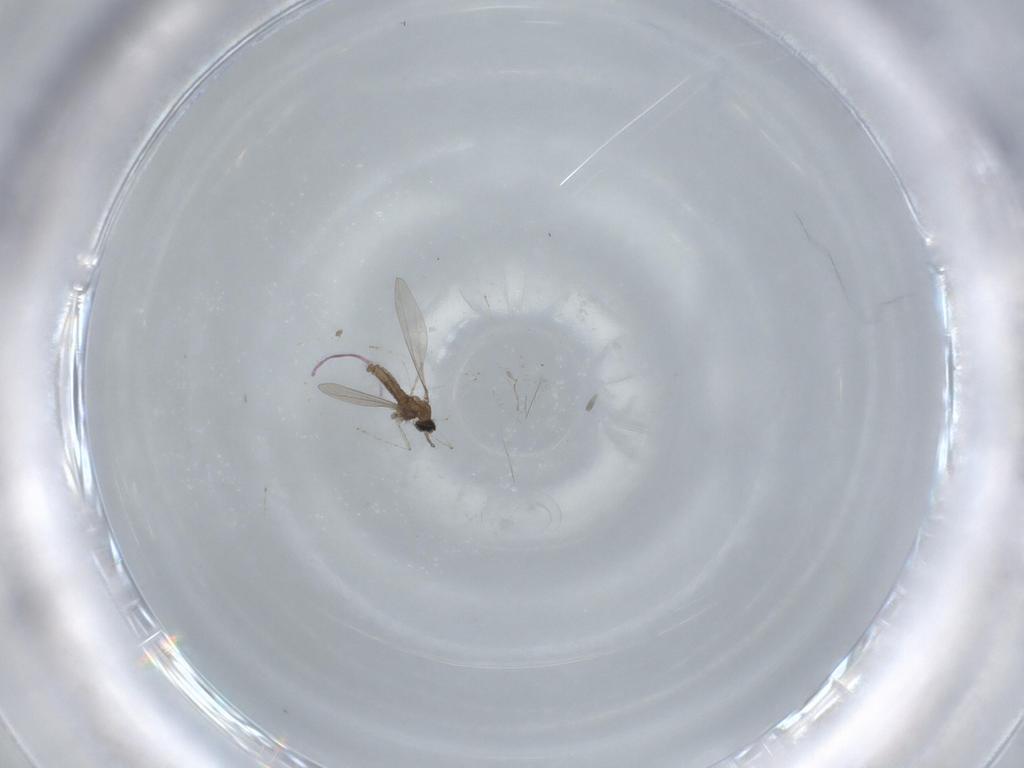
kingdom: Animalia
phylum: Arthropoda
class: Insecta
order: Diptera
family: Cecidomyiidae
